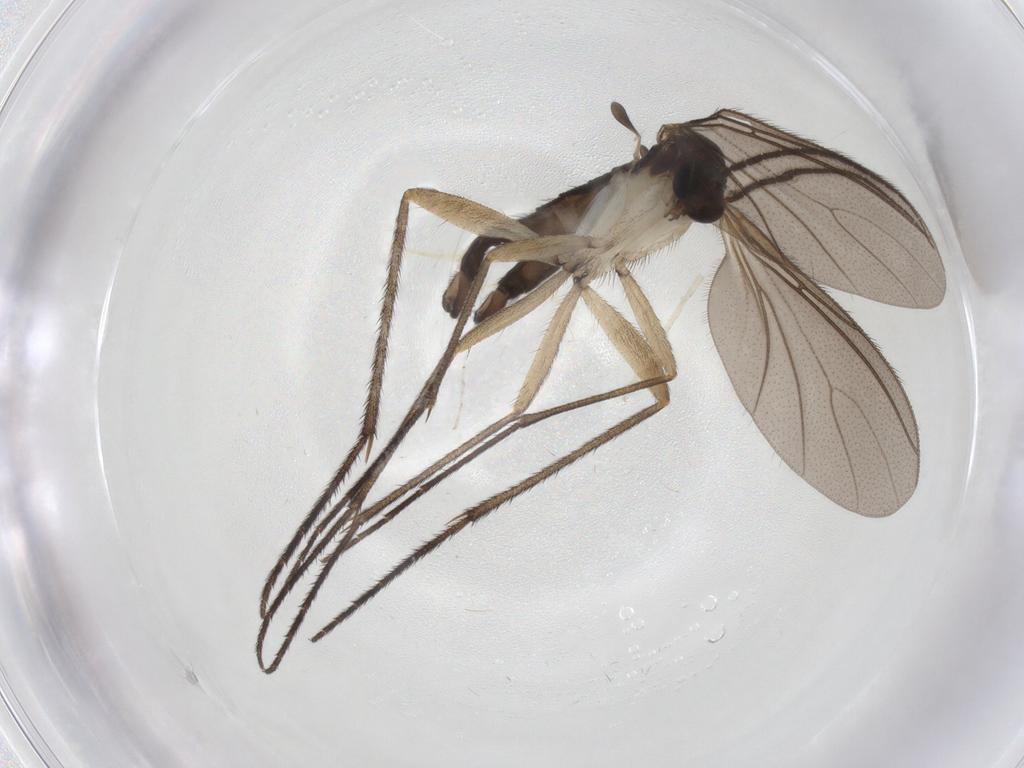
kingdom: Animalia
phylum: Arthropoda
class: Insecta
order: Diptera
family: Sciaridae
